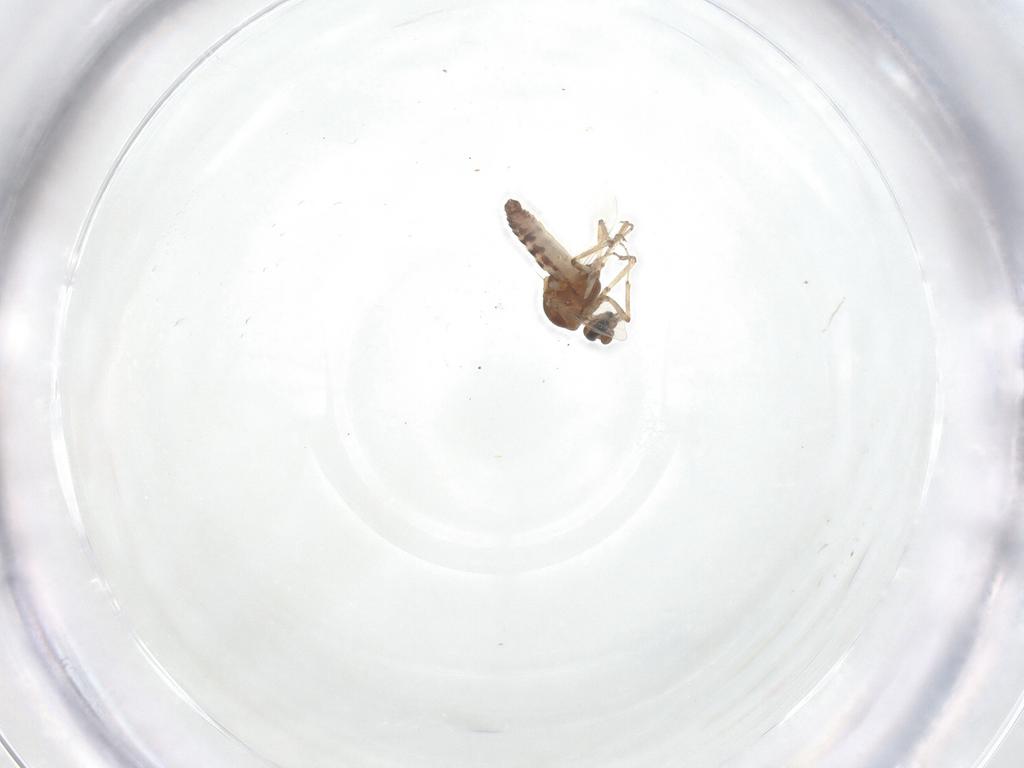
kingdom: Animalia
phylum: Arthropoda
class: Insecta
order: Diptera
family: Ceratopogonidae
